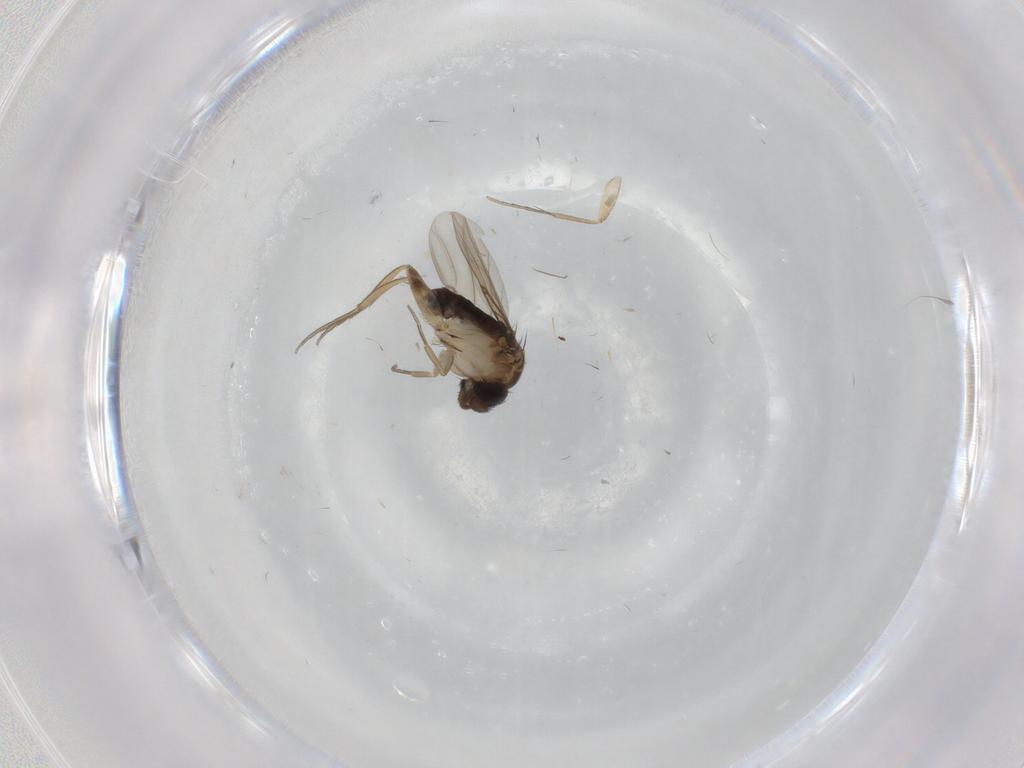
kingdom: Animalia
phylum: Arthropoda
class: Insecta
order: Diptera
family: Phoridae
